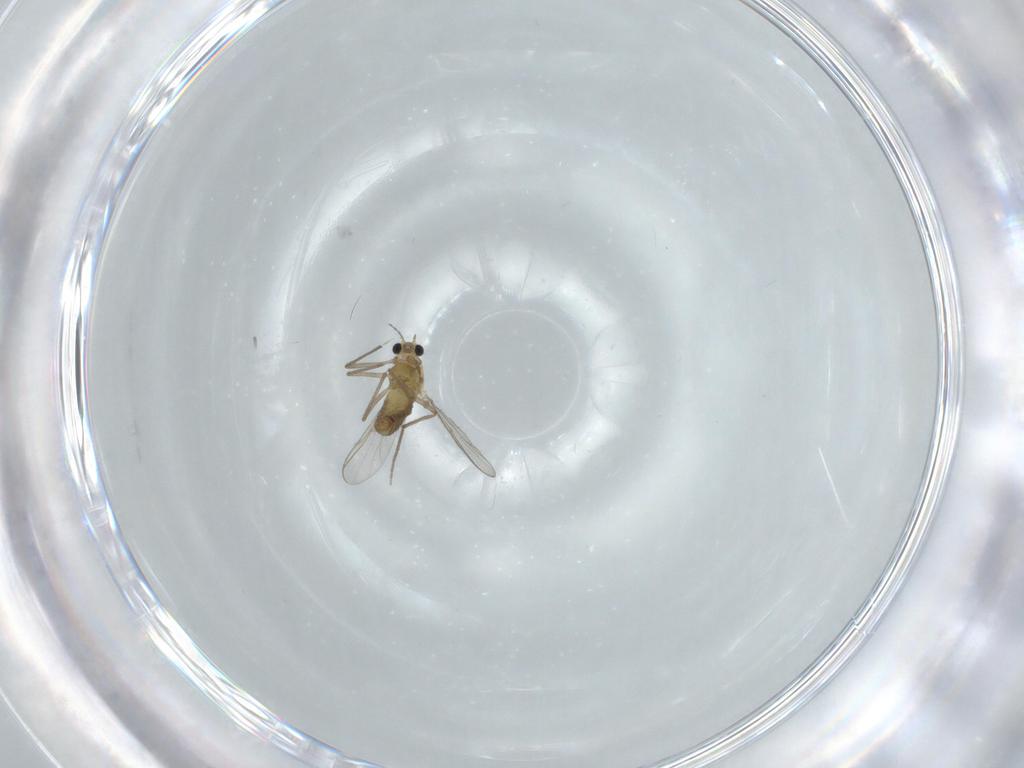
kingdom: Animalia
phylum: Arthropoda
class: Insecta
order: Diptera
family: Chironomidae
